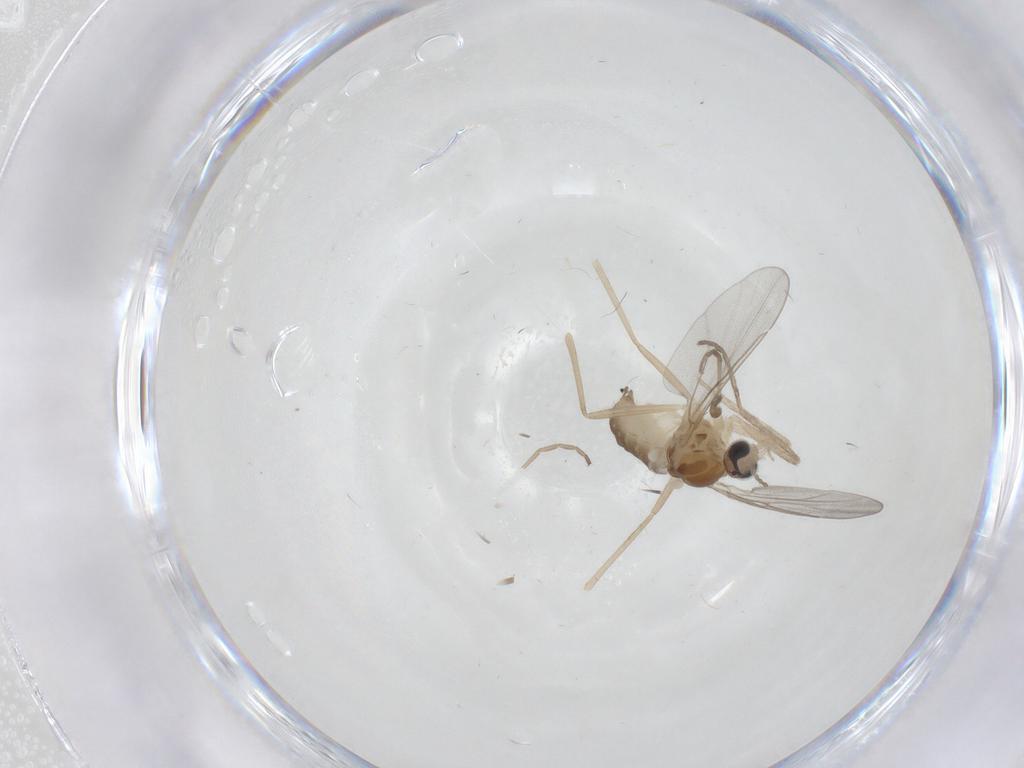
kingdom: Animalia
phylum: Arthropoda
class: Insecta
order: Diptera
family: Cecidomyiidae
